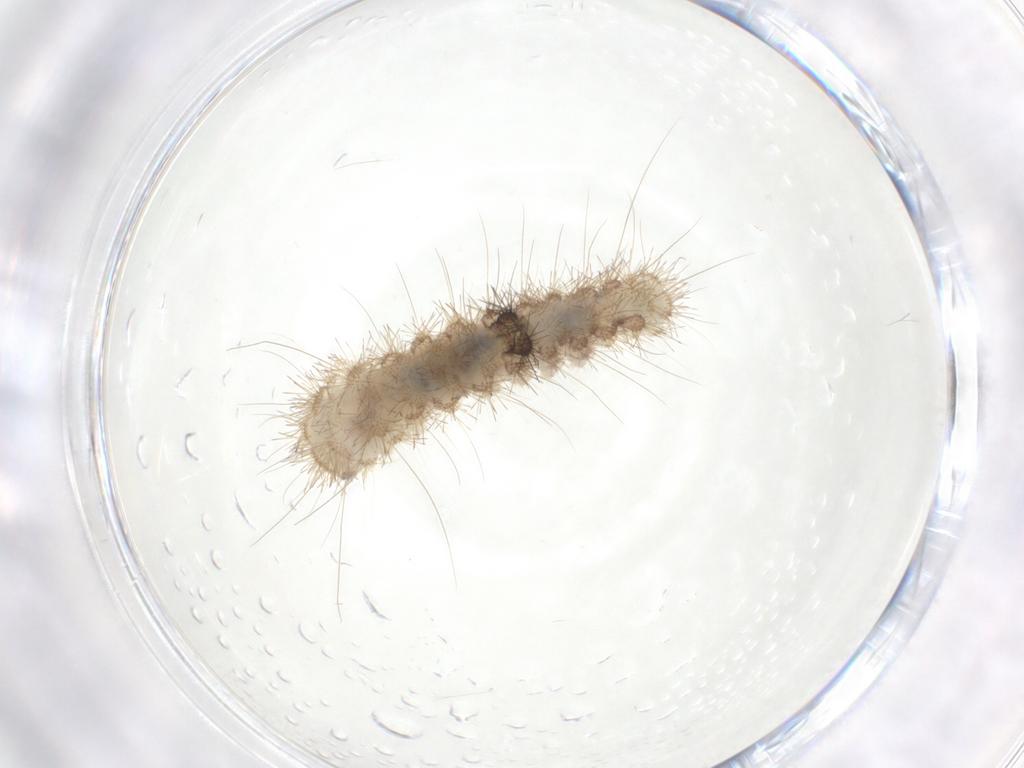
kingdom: Animalia
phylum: Arthropoda
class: Insecta
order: Lepidoptera
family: Erebidae
